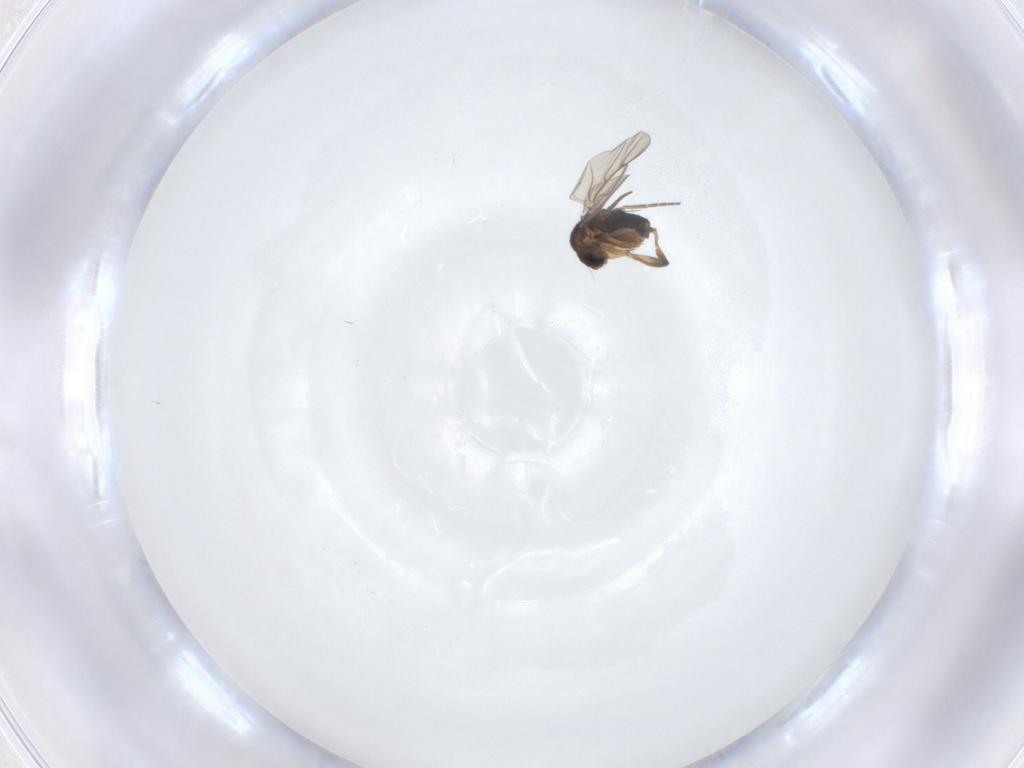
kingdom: Animalia
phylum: Arthropoda
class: Insecta
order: Diptera
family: Phoridae
